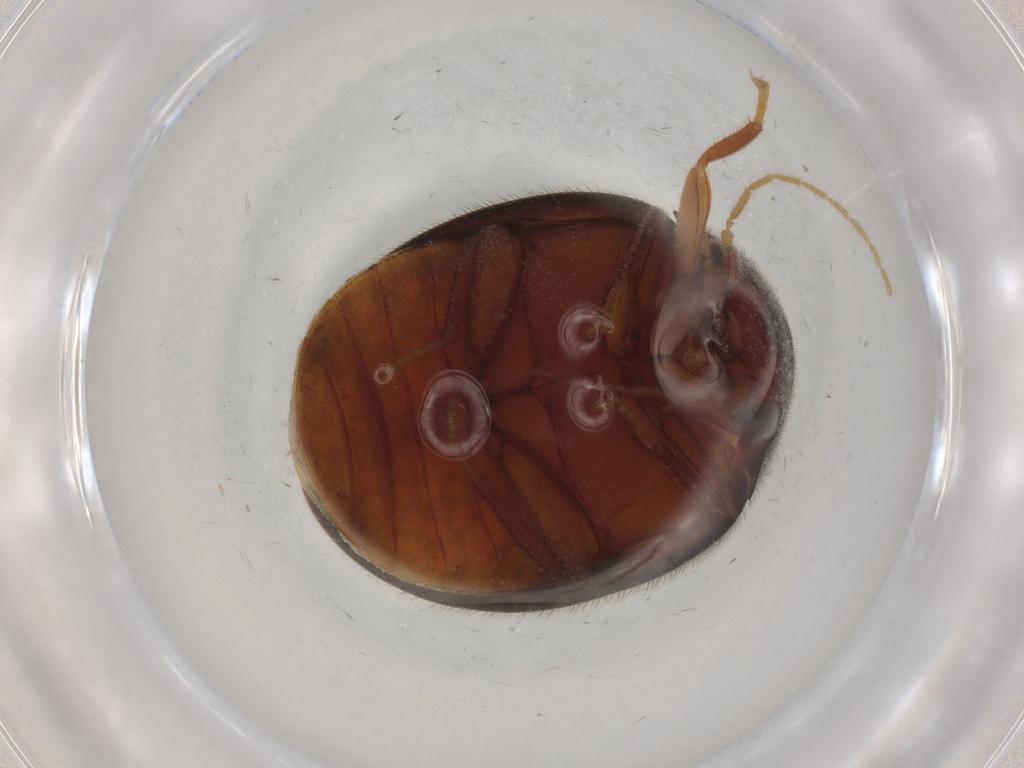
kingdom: Animalia
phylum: Arthropoda
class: Insecta
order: Coleoptera
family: Scirtidae
